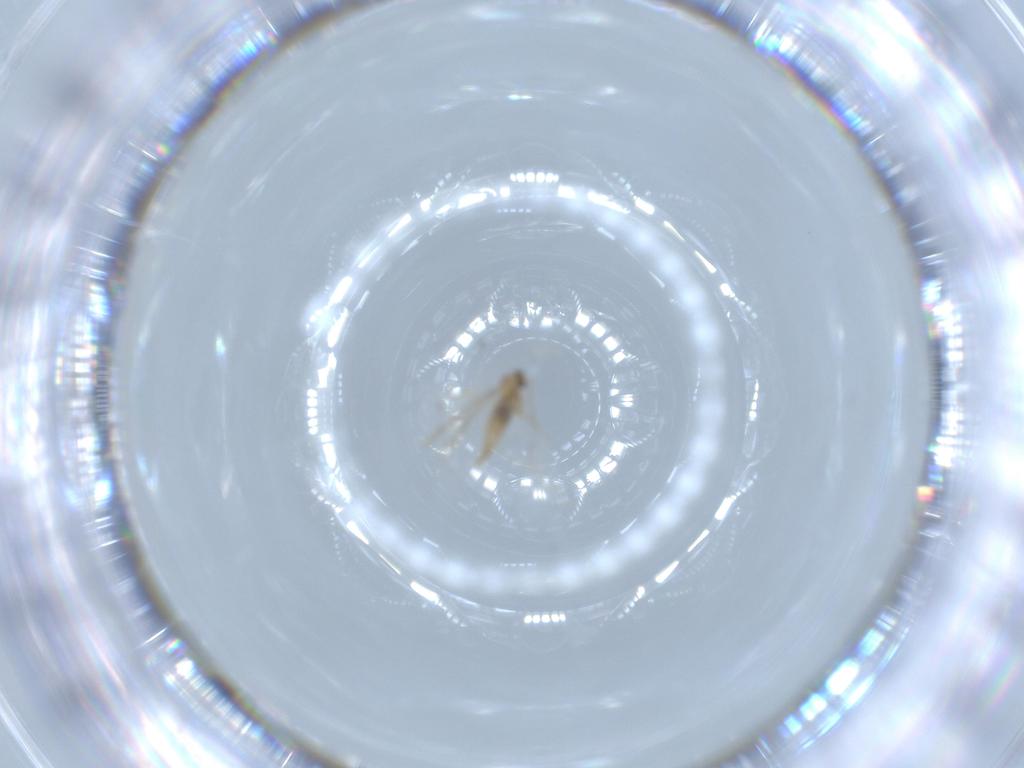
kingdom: Animalia
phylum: Arthropoda
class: Insecta
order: Diptera
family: Cecidomyiidae
